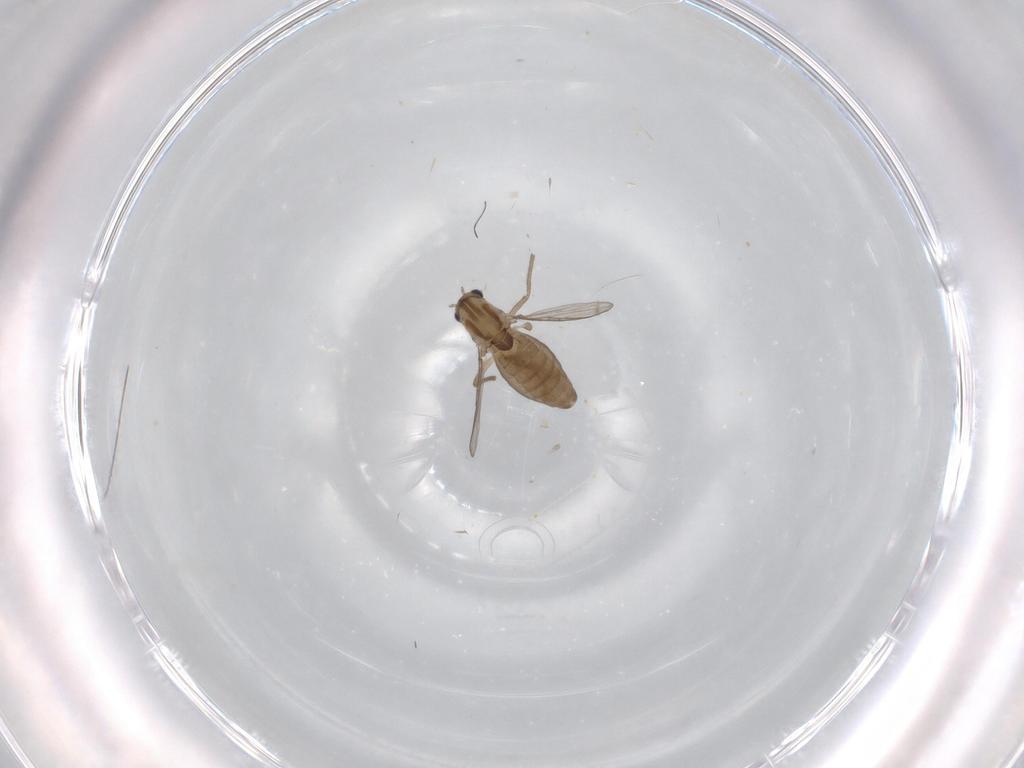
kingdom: Animalia
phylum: Arthropoda
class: Insecta
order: Diptera
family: Chironomidae
